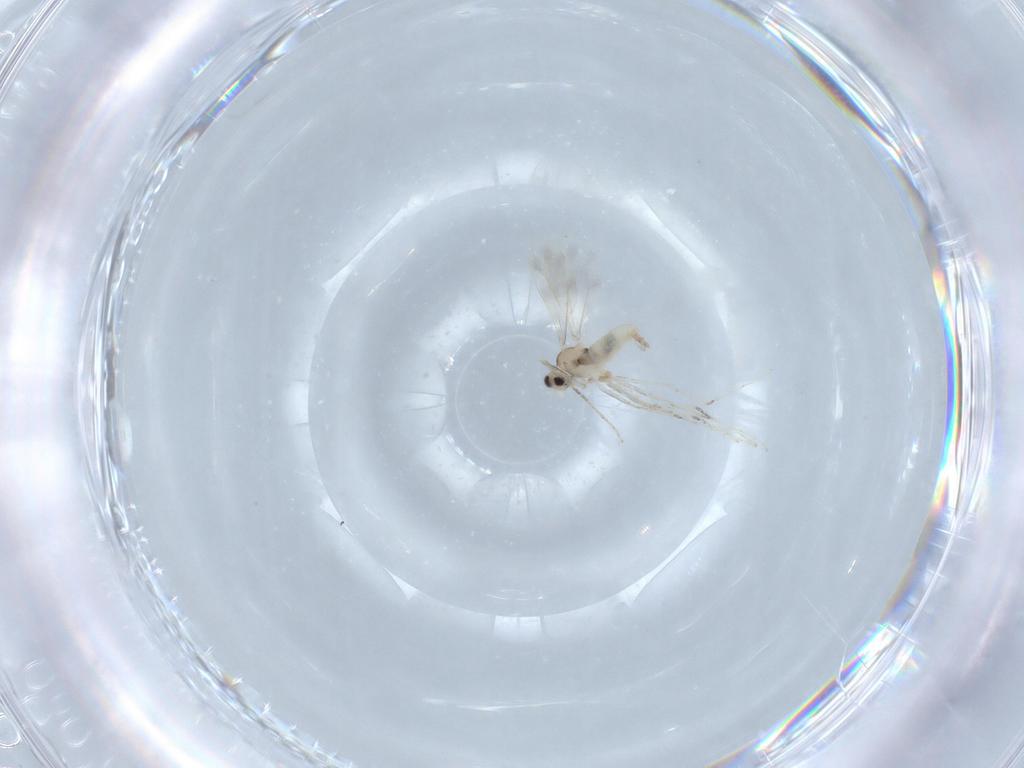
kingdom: Animalia
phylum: Arthropoda
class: Insecta
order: Diptera
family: Cecidomyiidae
